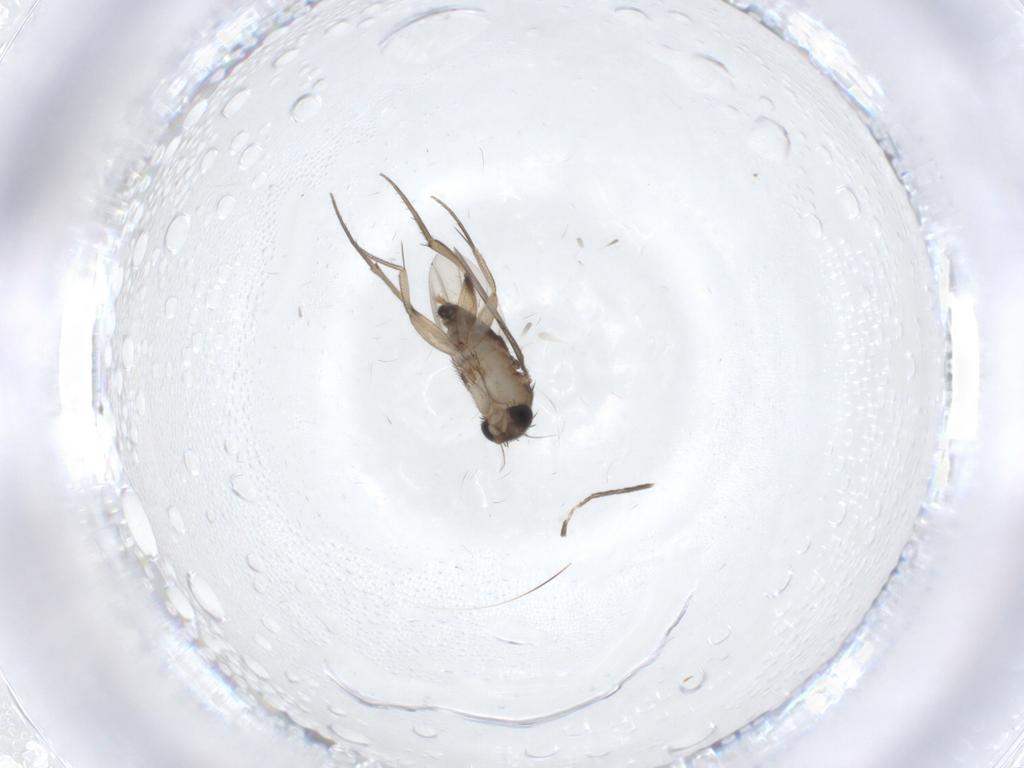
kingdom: Animalia
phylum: Arthropoda
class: Insecta
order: Diptera
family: Phoridae
